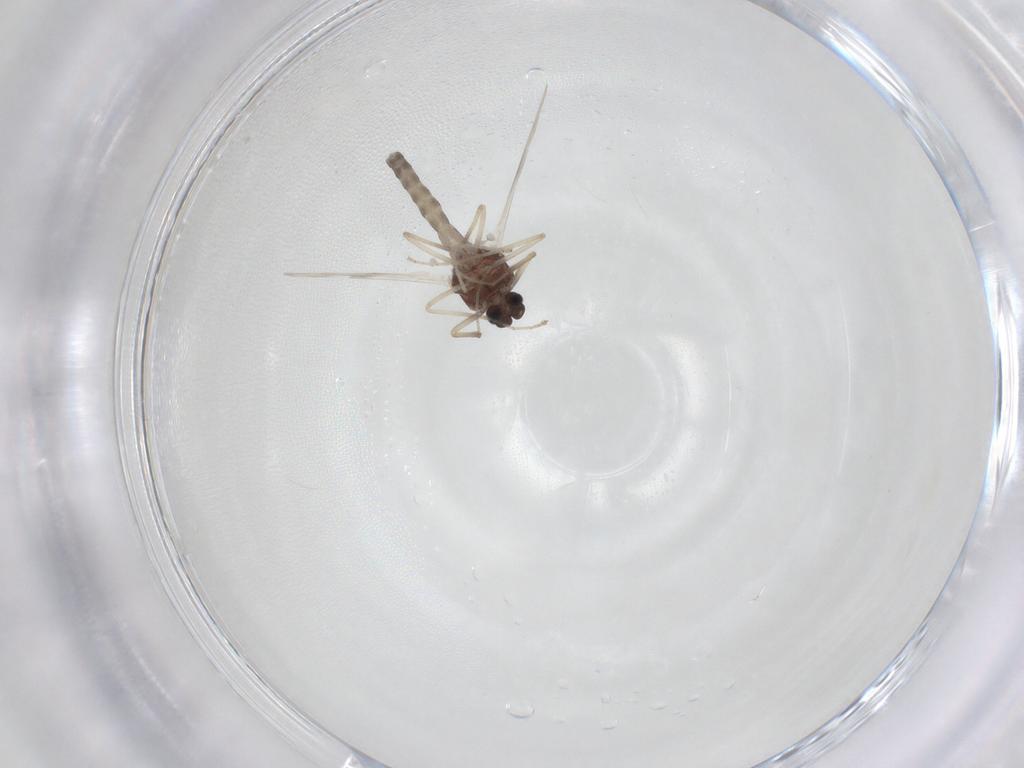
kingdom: Animalia
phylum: Arthropoda
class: Insecta
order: Diptera
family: Ceratopogonidae
